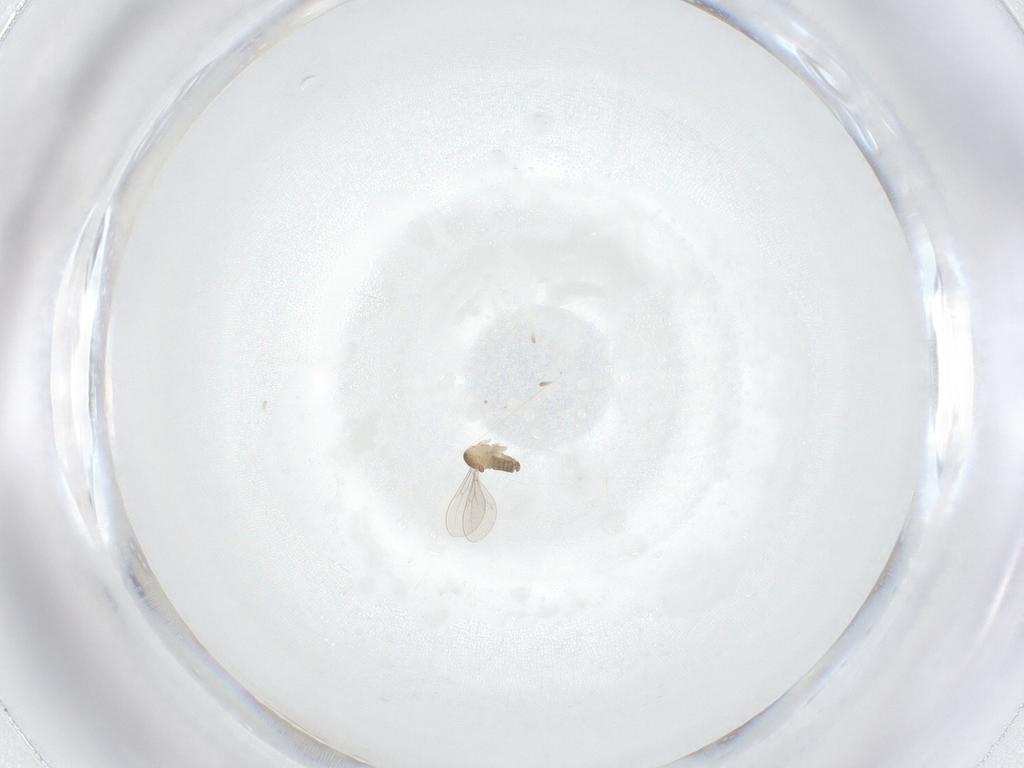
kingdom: Animalia
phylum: Arthropoda
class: Insecta
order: Diptera
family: Cecidomyiidae
